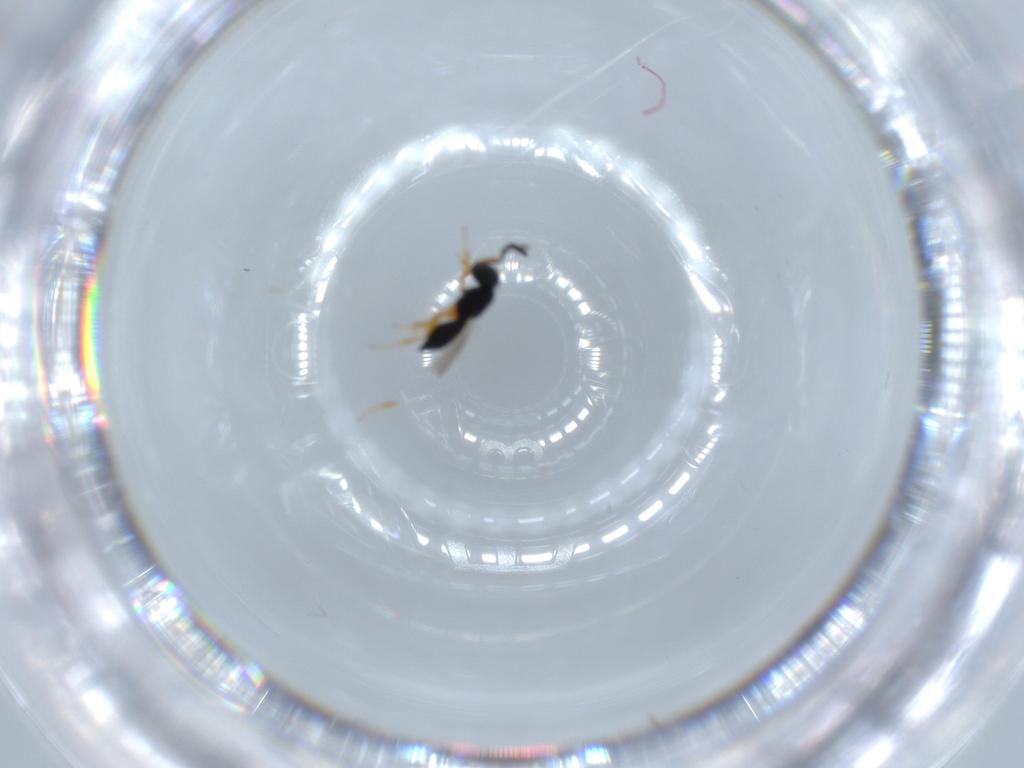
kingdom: Animalia
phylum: Arthropoda
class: Insecta
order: Hymenoptera
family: Scelionidae
